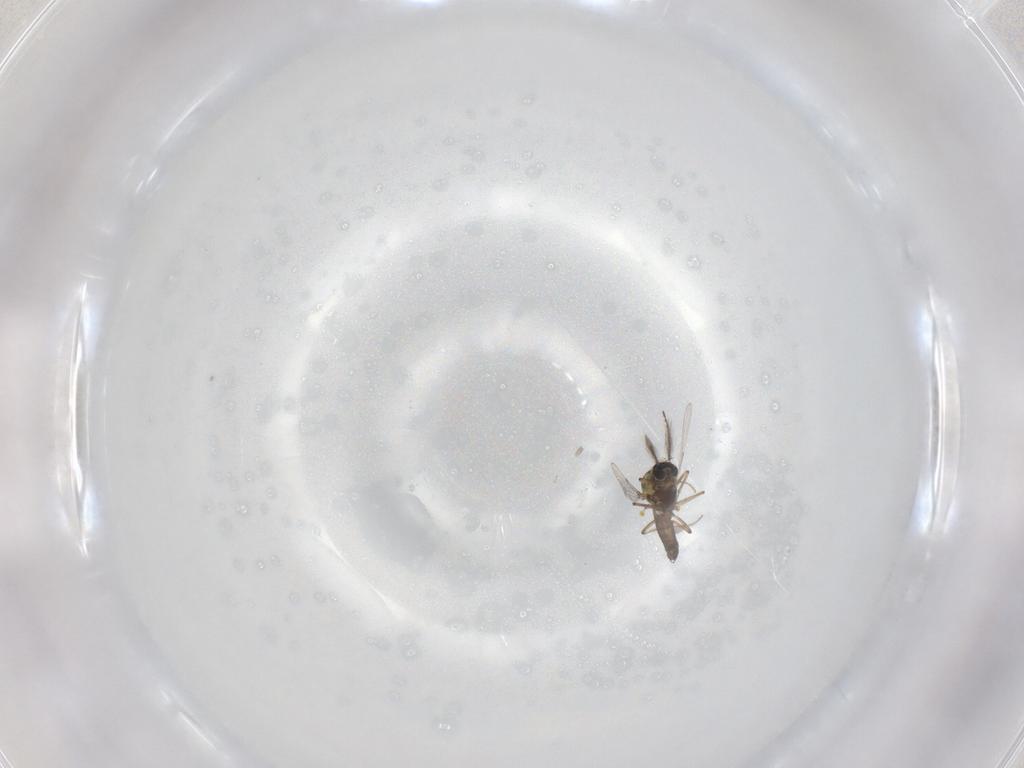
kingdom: Animalia
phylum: Arthropoda
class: Insecta
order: Diptera
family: Ceratopogonidae
